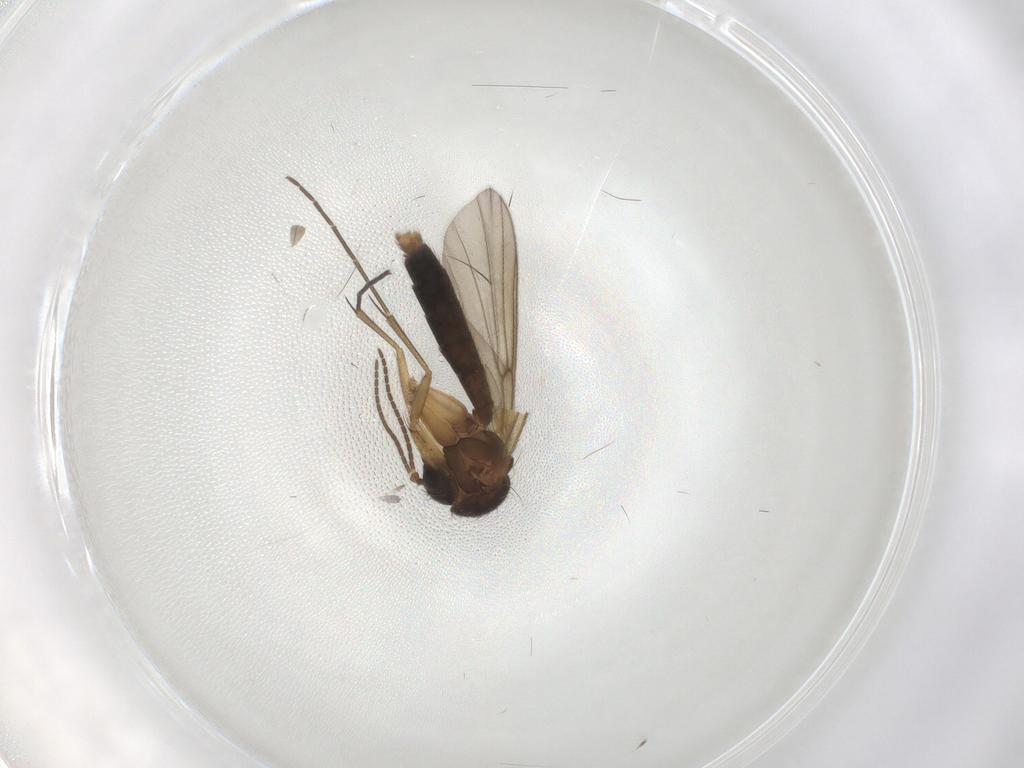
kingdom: Animalia
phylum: Arthropoda
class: Insecta
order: Diptera
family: Mycetophilidae
